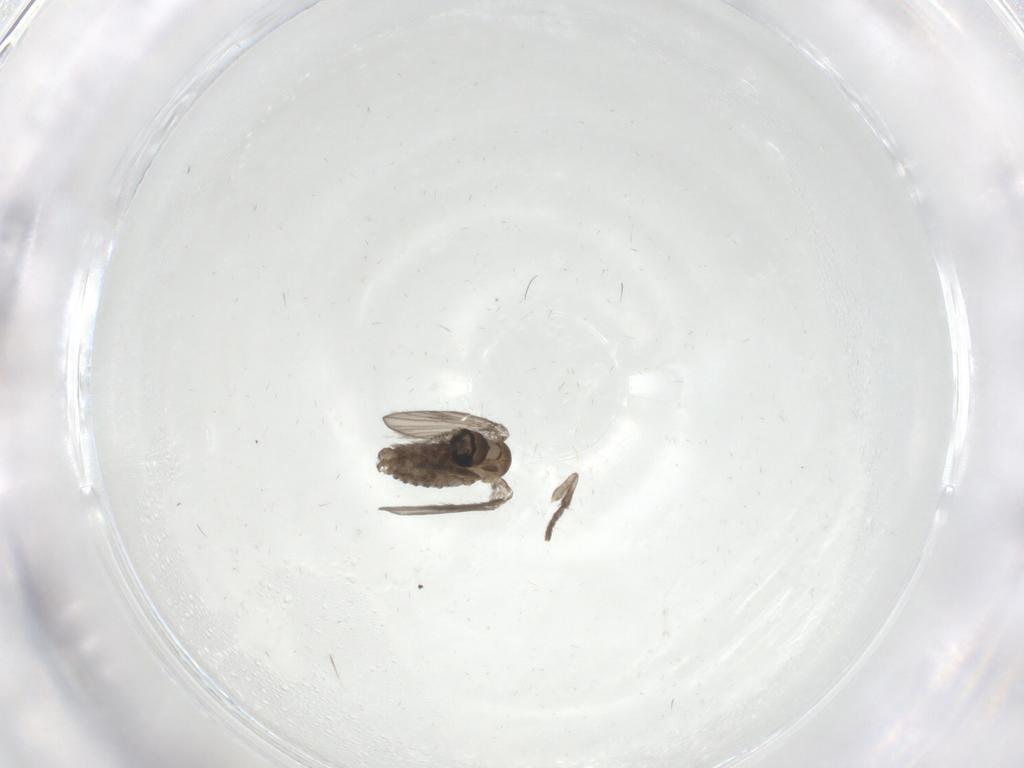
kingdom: Animalia
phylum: Arthropoda
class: Insecta
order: Diptera
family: Psychodidae
